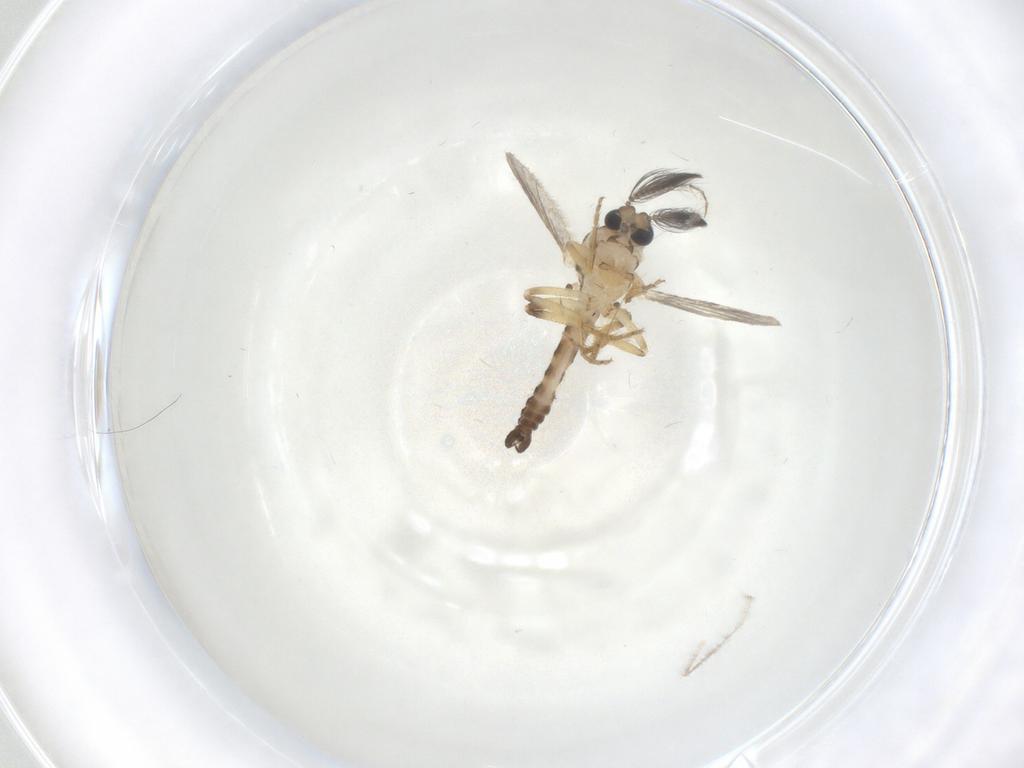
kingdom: Animalia
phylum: Arthropoda
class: Insecta
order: Diptera
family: Ceratopogonidae
